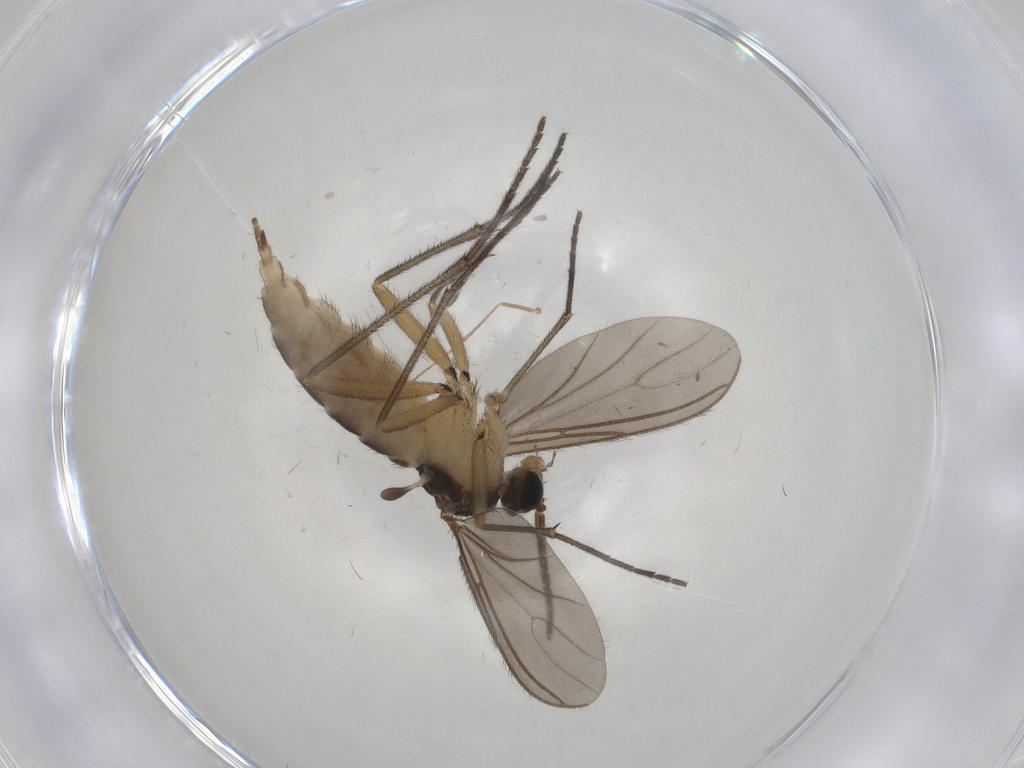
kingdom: Animalia
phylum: Arthropoda
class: Insecta
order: Diptera
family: Sciaridae
